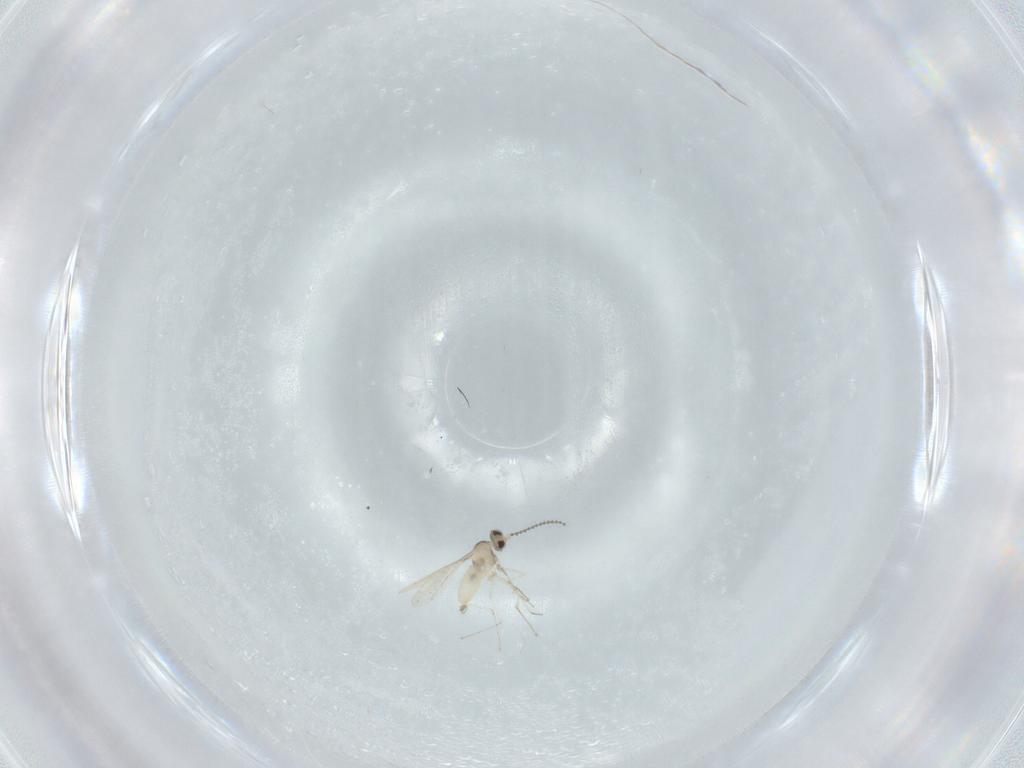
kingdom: Animalia
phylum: Arthropoda
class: Insecta
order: Diptera
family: Cecidomyiidae
